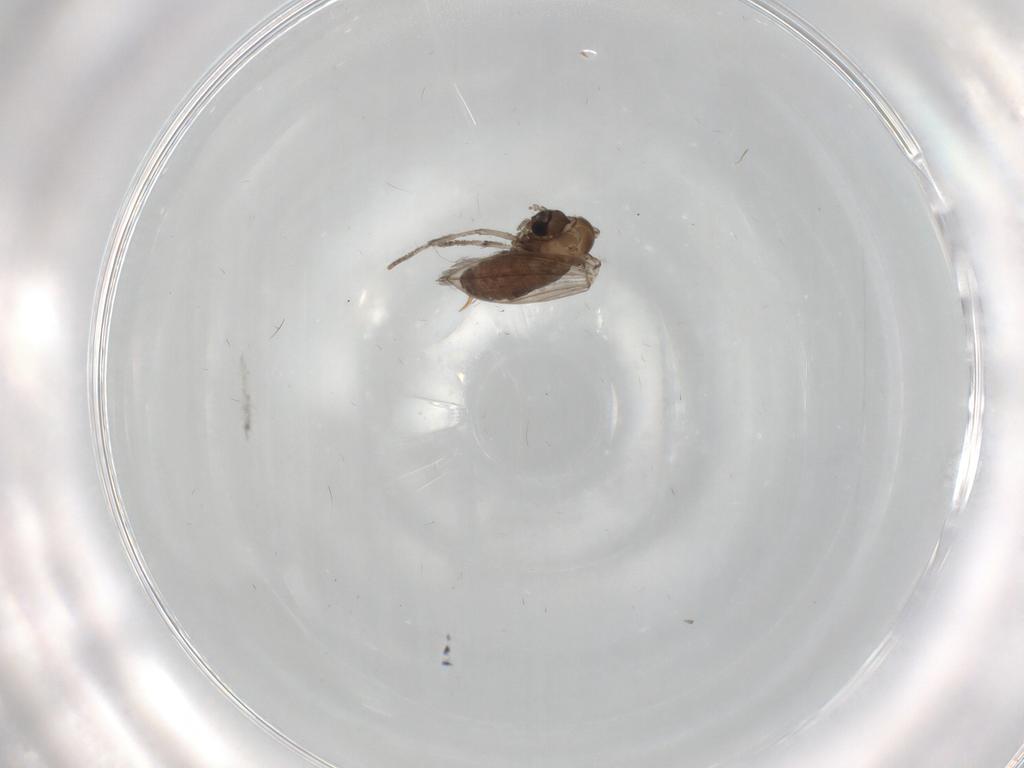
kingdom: Animalia
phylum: Arthropoda
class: Insecta
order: Diptera
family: Psychodidae
